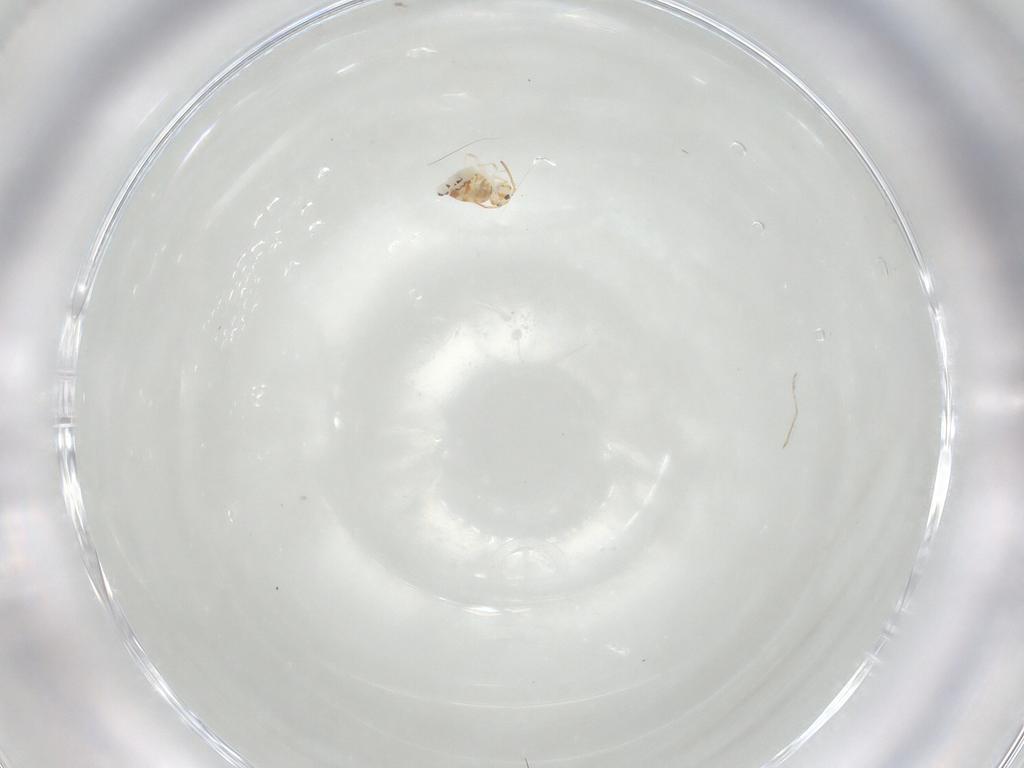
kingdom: Animalia
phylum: Arthropoda
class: Collembola
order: Symphypleona
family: Bourletiellidae
